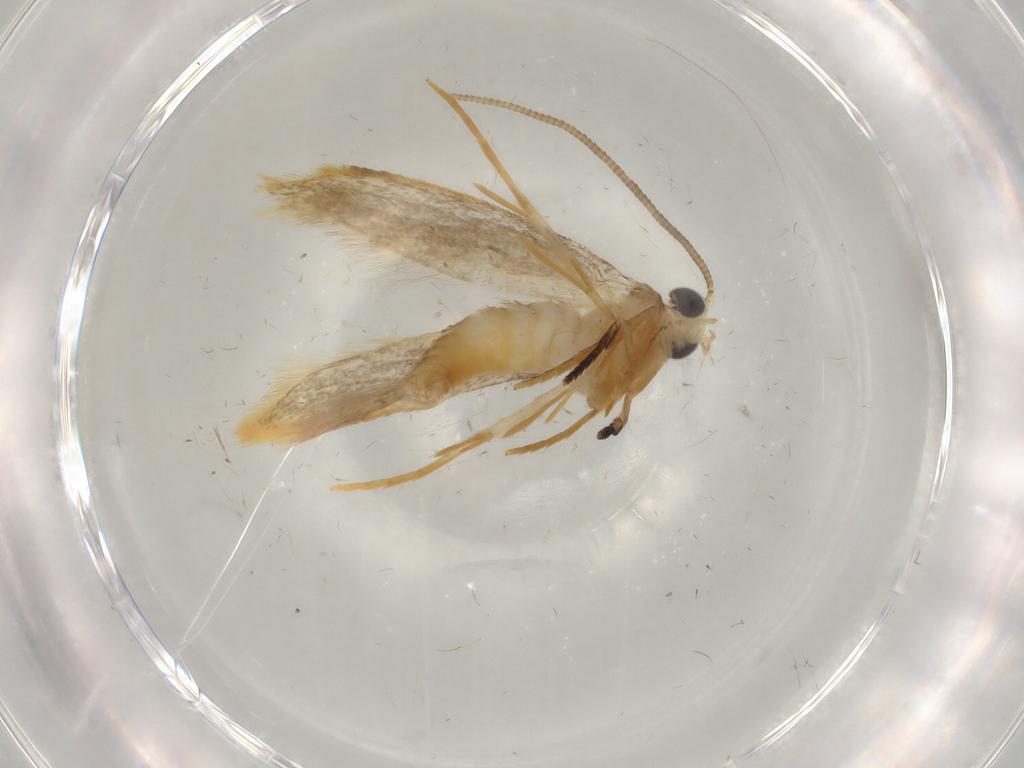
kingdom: Animalia
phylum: Arthropoda
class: Insecta
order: Lepidoptera
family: Tineidae
